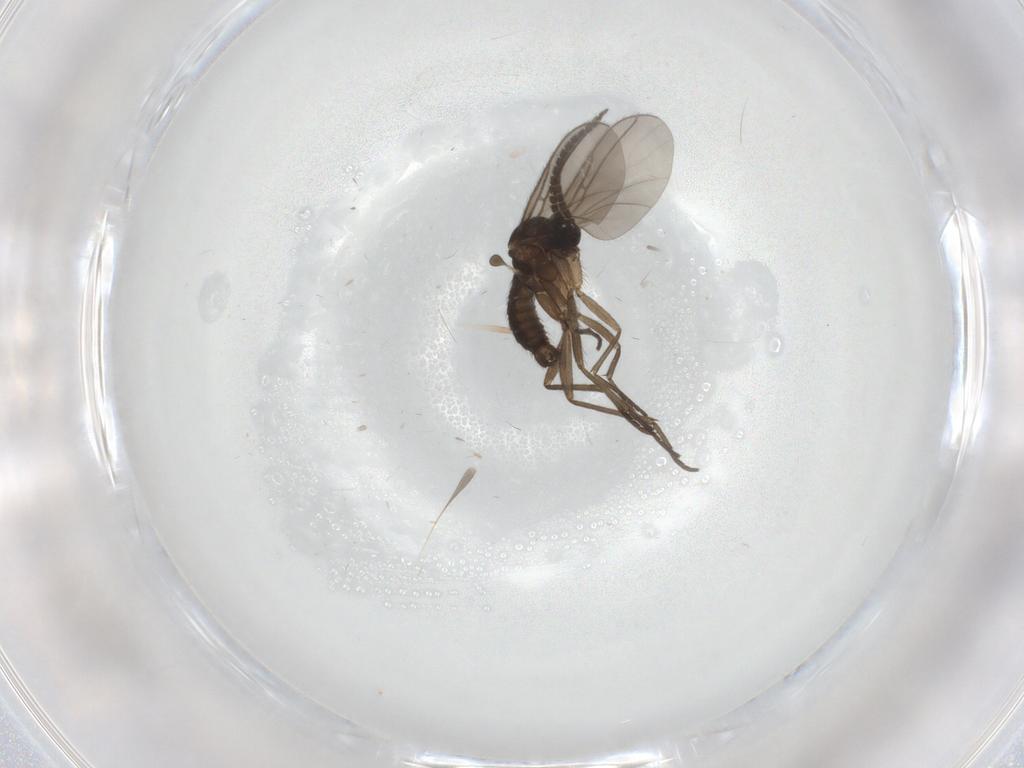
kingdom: Animalia
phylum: Arthropoda
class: Insecta
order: Diptera
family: Sciaridae
